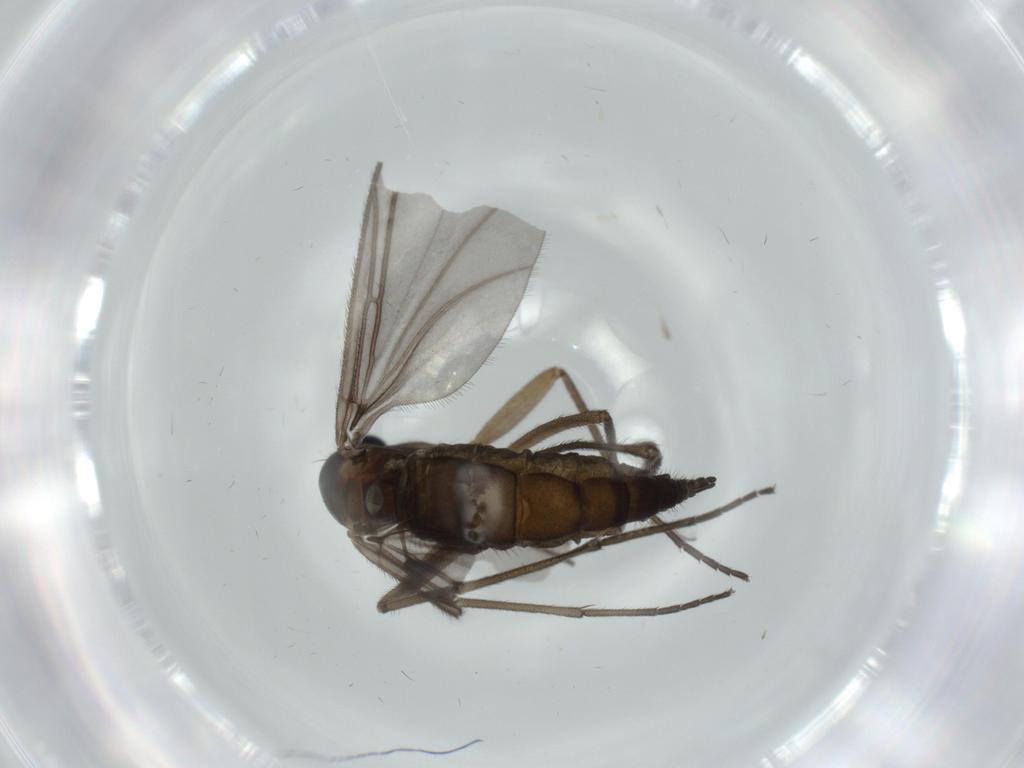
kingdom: Animalia
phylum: Arthropoda
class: Insecta
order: Diptera
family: Sciaridae
